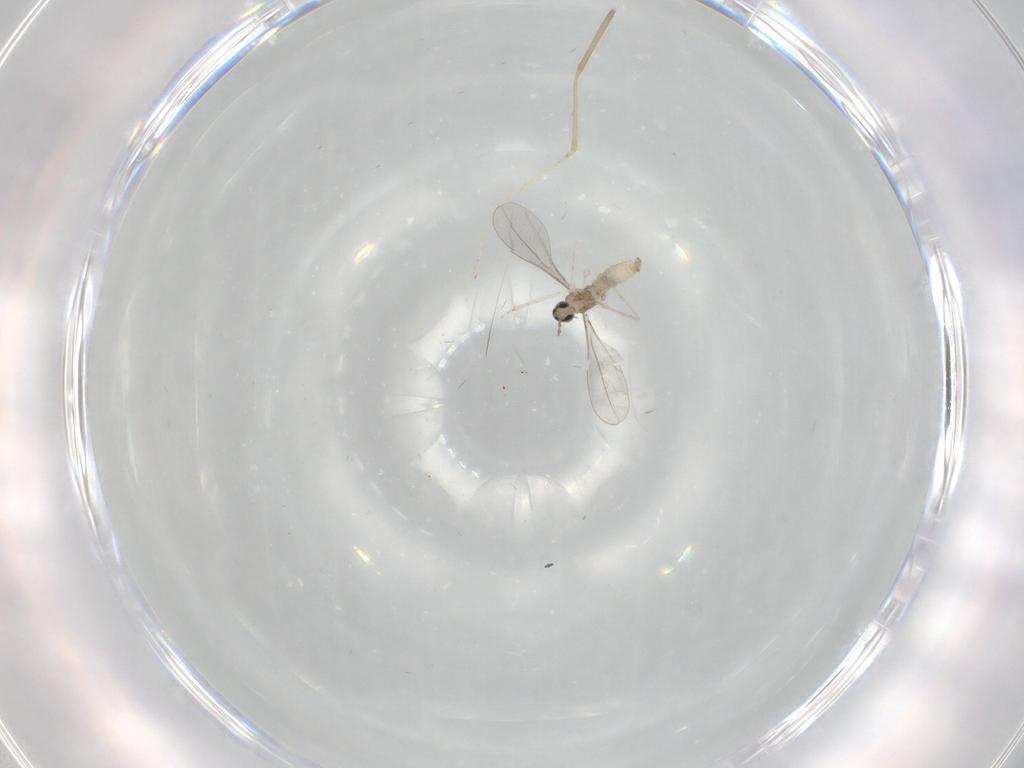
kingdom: Animalia
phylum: Arthropoda
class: Insecta
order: Diptera
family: Cecidomyiidae
